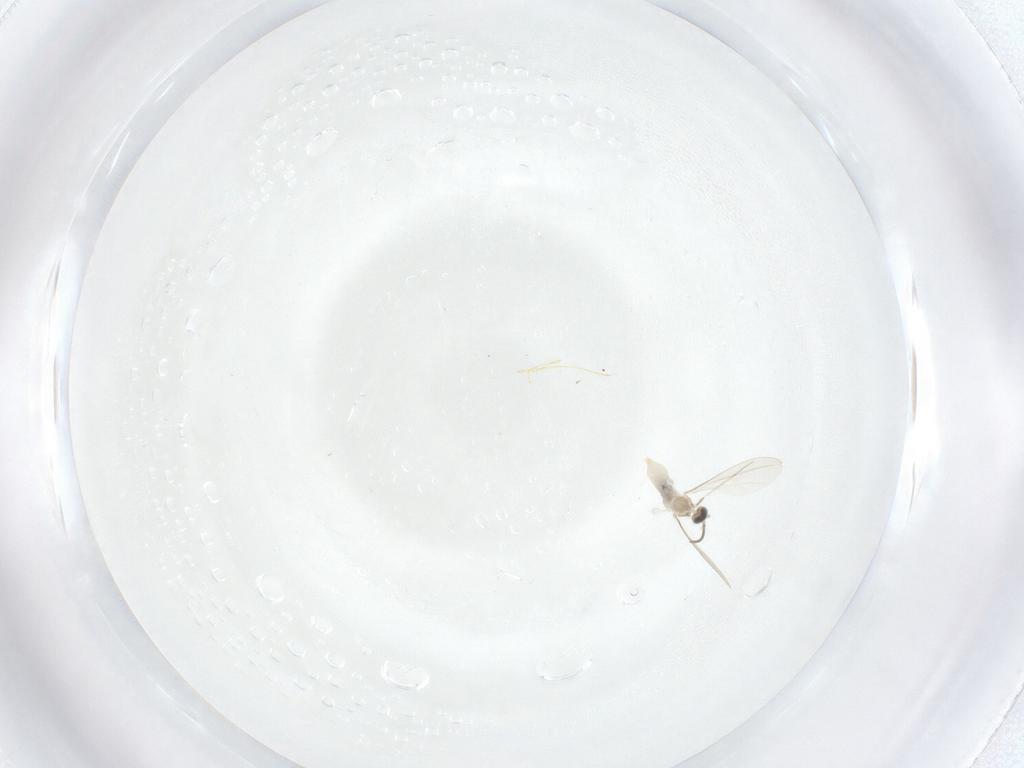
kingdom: Animalia
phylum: Arthropoda
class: Insecta
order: Diptera
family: Cecidomyiidae
